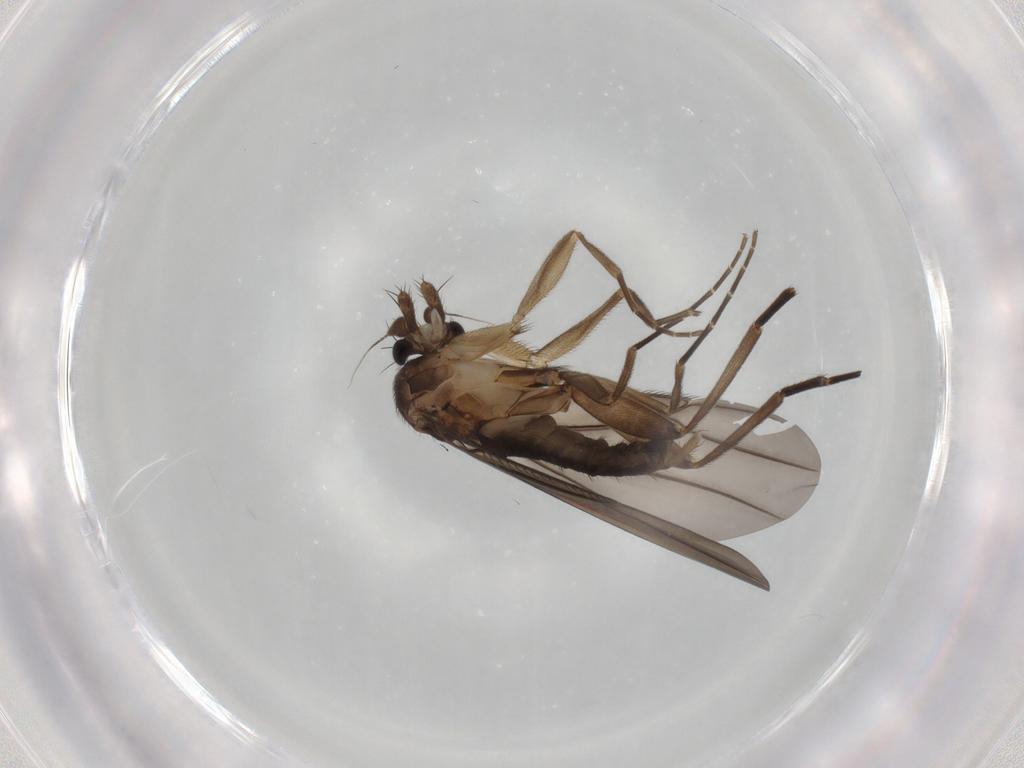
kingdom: Animalia
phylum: Arthropoda
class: Insecta
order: Diptera
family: Phoridae
